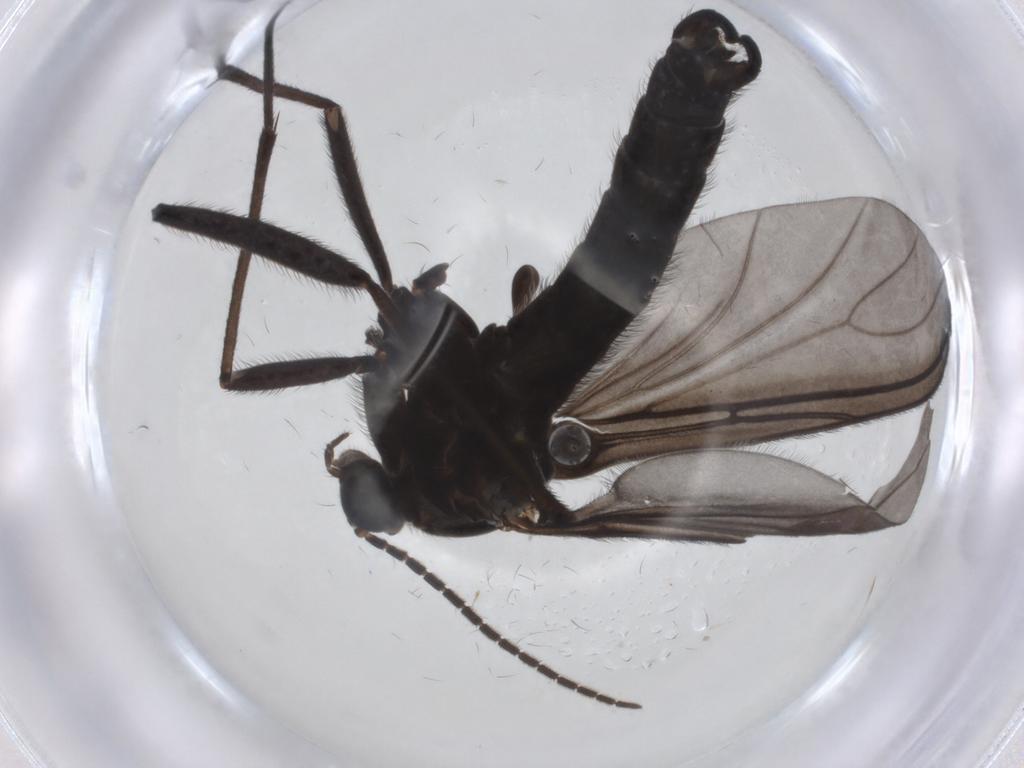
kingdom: Animalia
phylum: Arthropoda
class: Insecta
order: Diptera
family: Sciaridae
